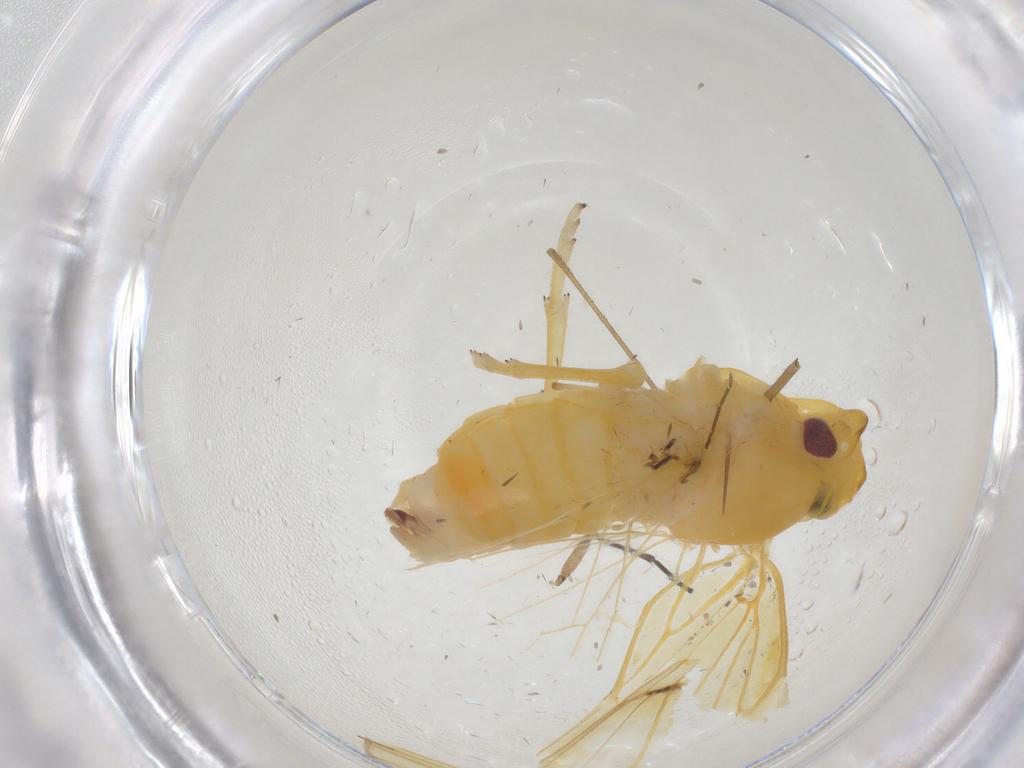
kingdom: Animalia
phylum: Arthropoda
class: Insecta
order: Hemiptera
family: Cixiidae
